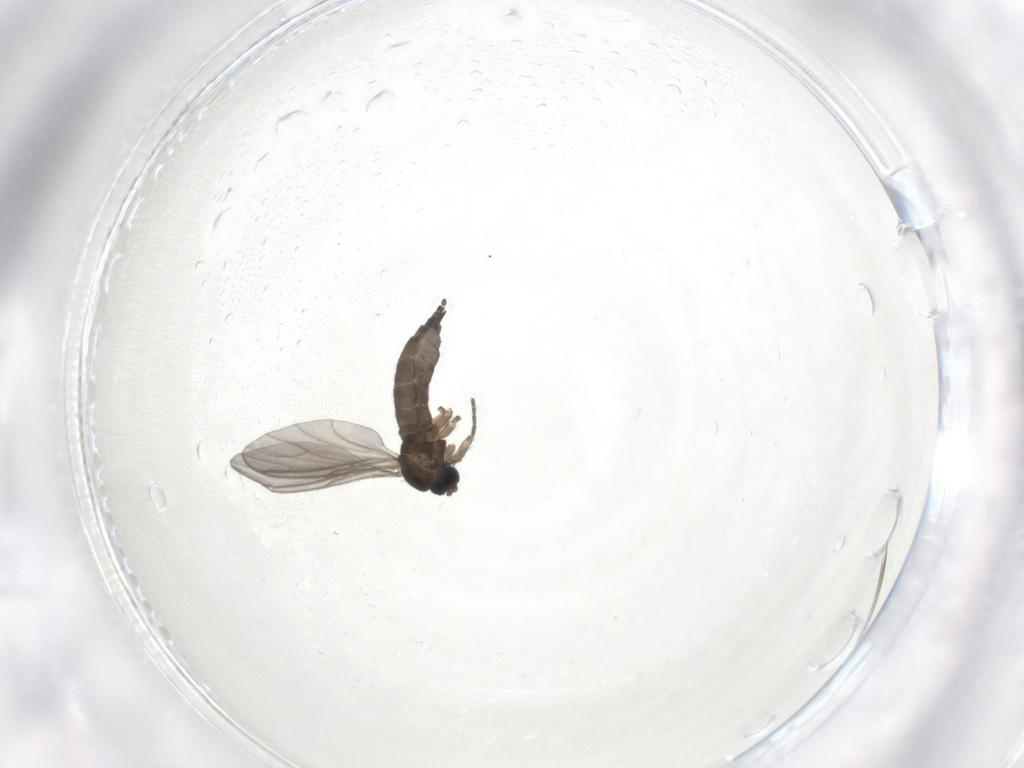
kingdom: Animalia
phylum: Arthropoda
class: Insecta
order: Diptera
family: Sciaridae
